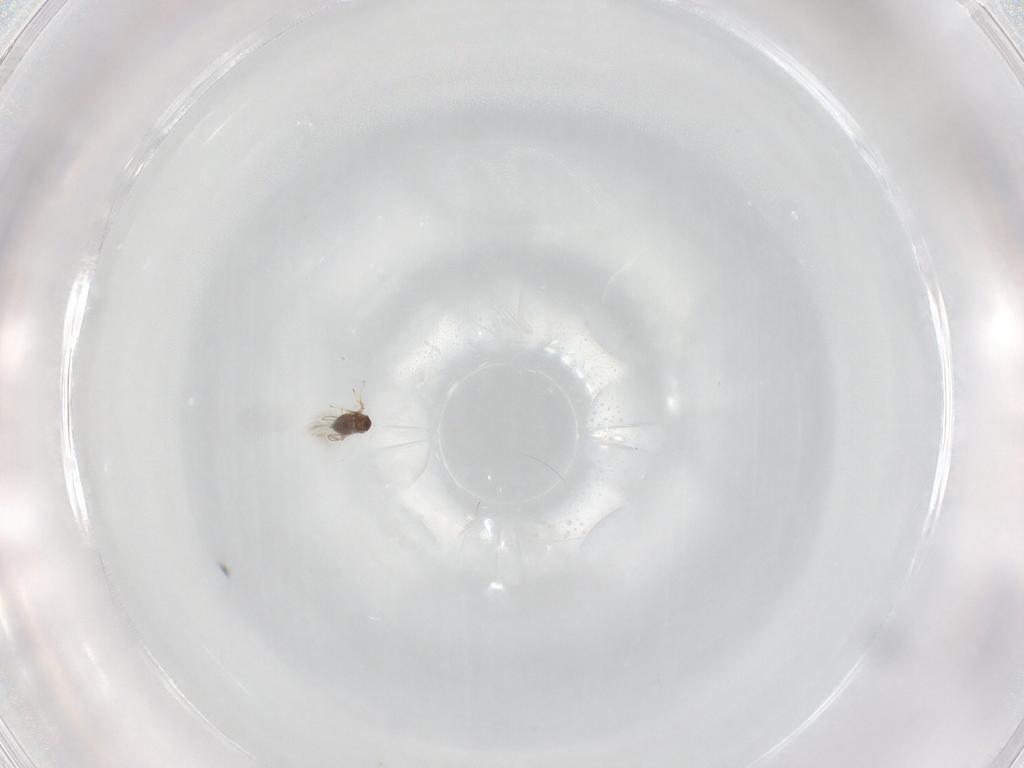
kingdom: Animalia
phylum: Arthropoda
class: Insecta
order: Hymenoptera
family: Mymaridae
